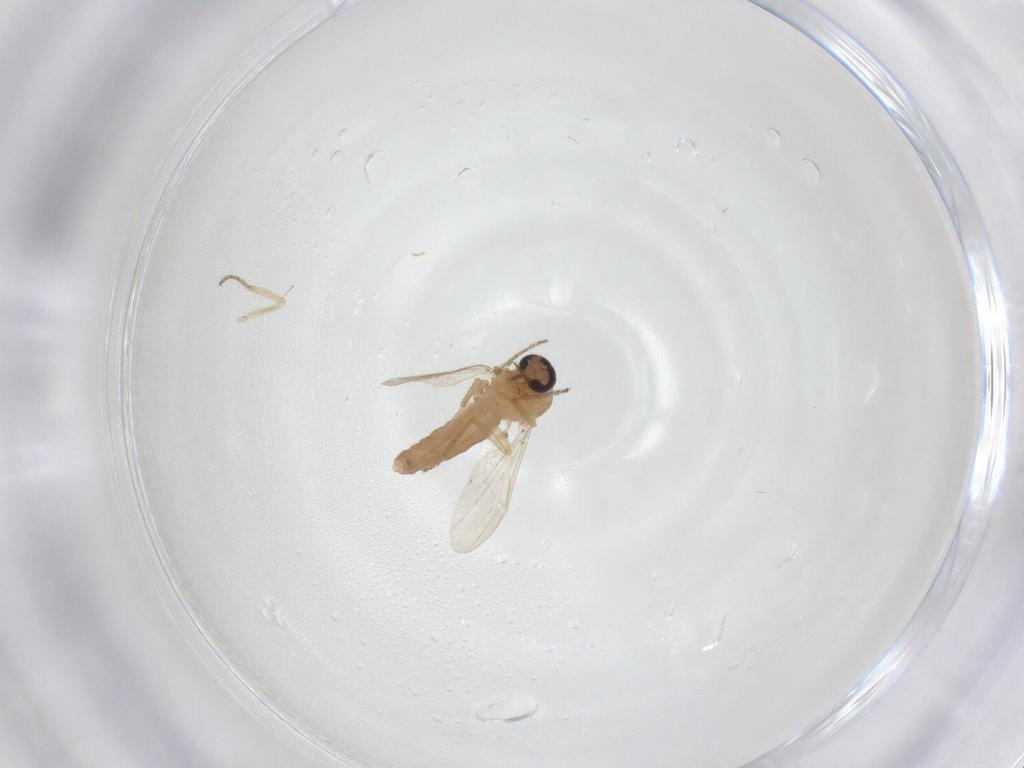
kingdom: Animalia
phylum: Arthropoda
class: Insecta
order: Diptera
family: Ceratopogonidae
